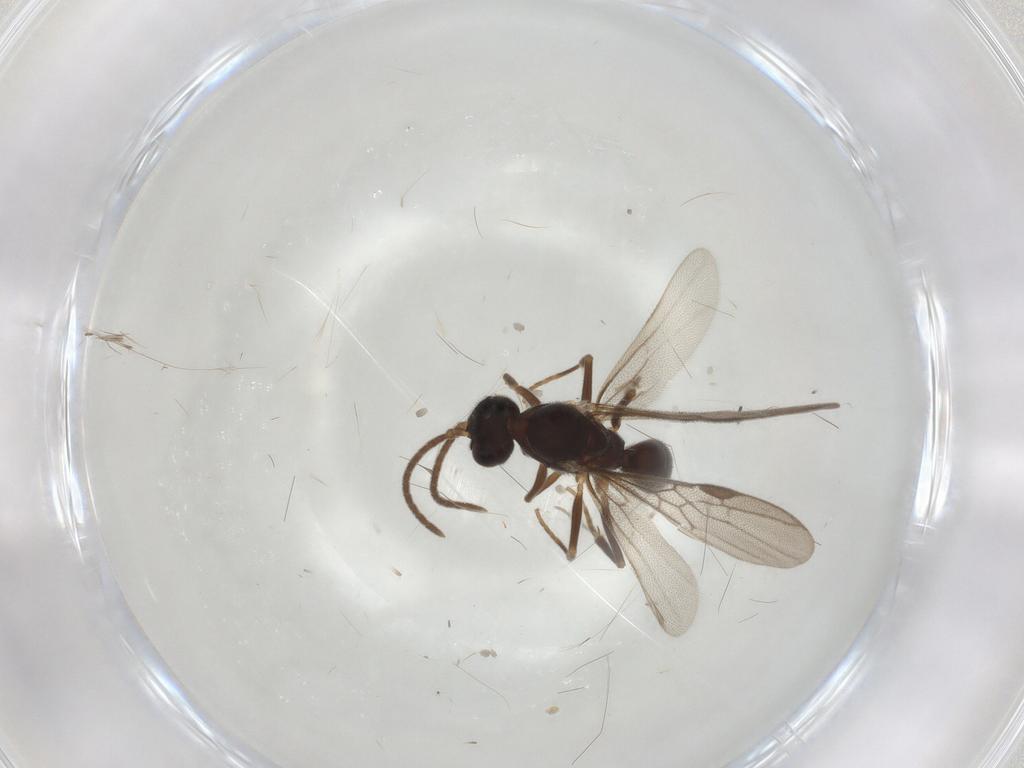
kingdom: Animalia
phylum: Arthropoda
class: Insecta
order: Hymenoptera
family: Formicidae
